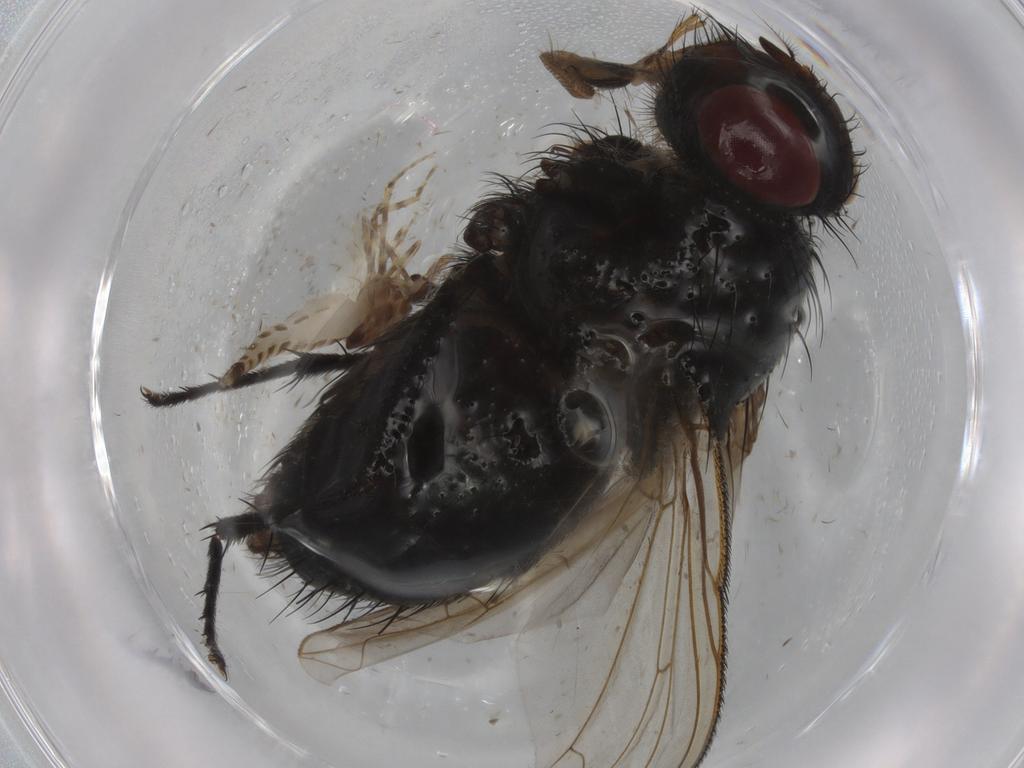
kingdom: Animalia
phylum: Arthropoda
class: Insecta
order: Diptera
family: Calliphoridae
